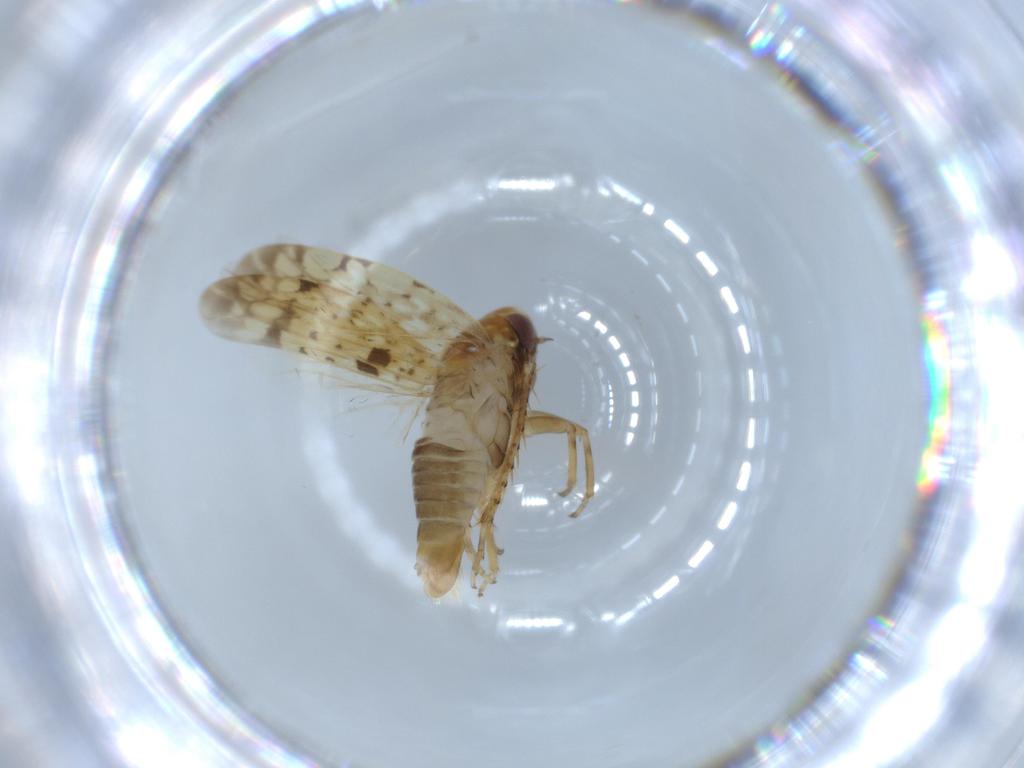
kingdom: Animalia
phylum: Arthropoda
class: Insecta
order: Hemiptera
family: Cicadellidae
